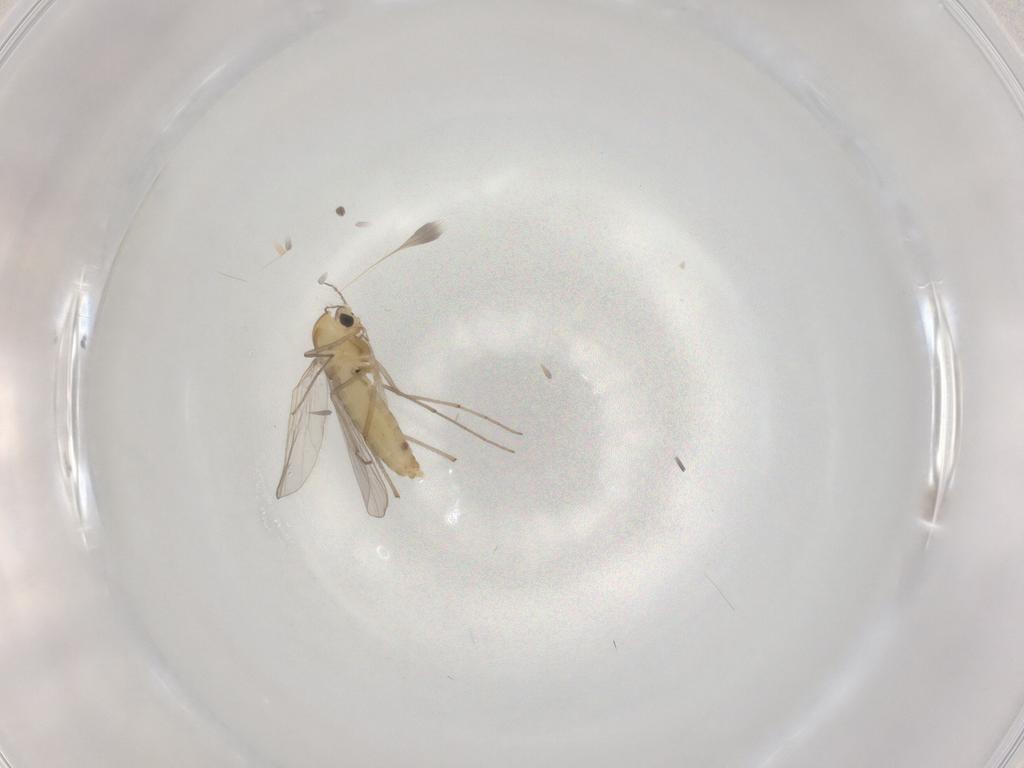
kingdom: Animalia
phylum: Arthropoda
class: Insecta
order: Diptera
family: Chironomidae
